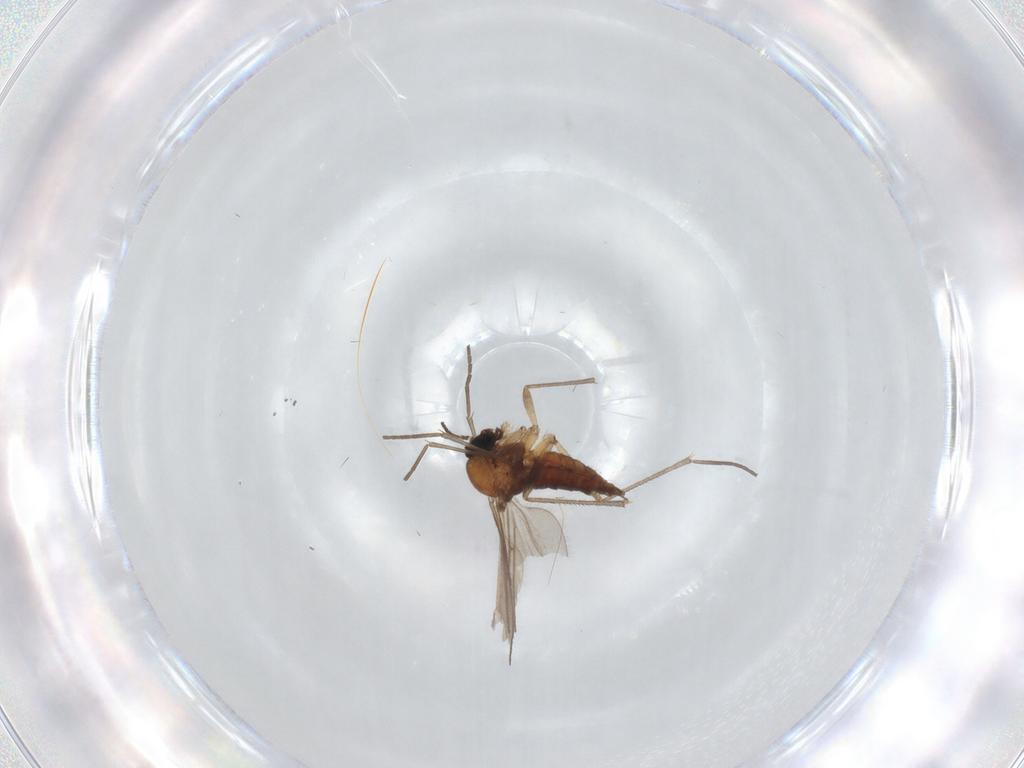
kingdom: Animalia
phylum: Arthropoda
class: Insecta
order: Diptera
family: Sciaridae
